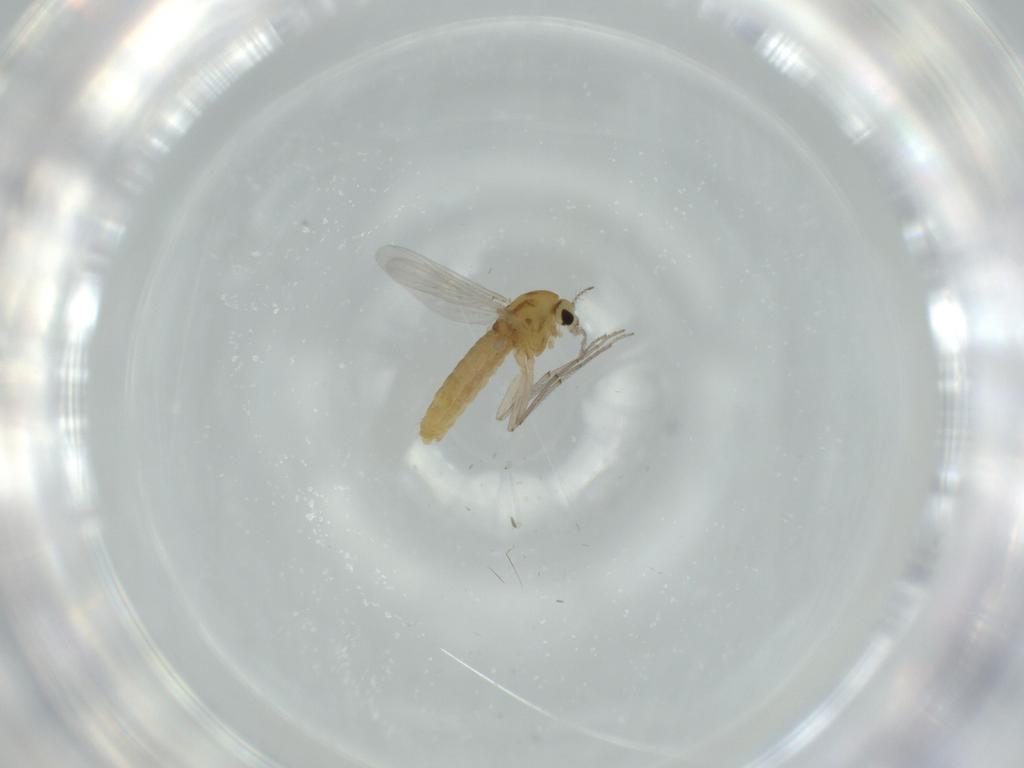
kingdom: Animalia
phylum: Arthropoda
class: Insecta
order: Diptera
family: Chironomidae
